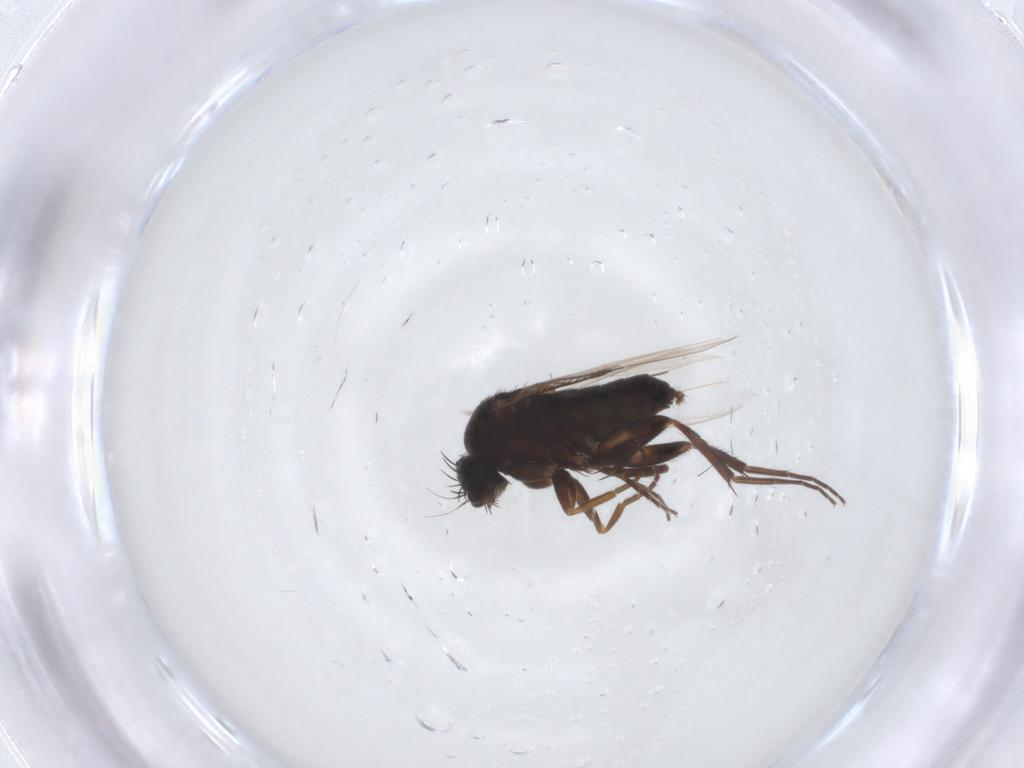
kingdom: Animalia
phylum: Arthropoda
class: Insecta
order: Diptera
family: Phoridae
